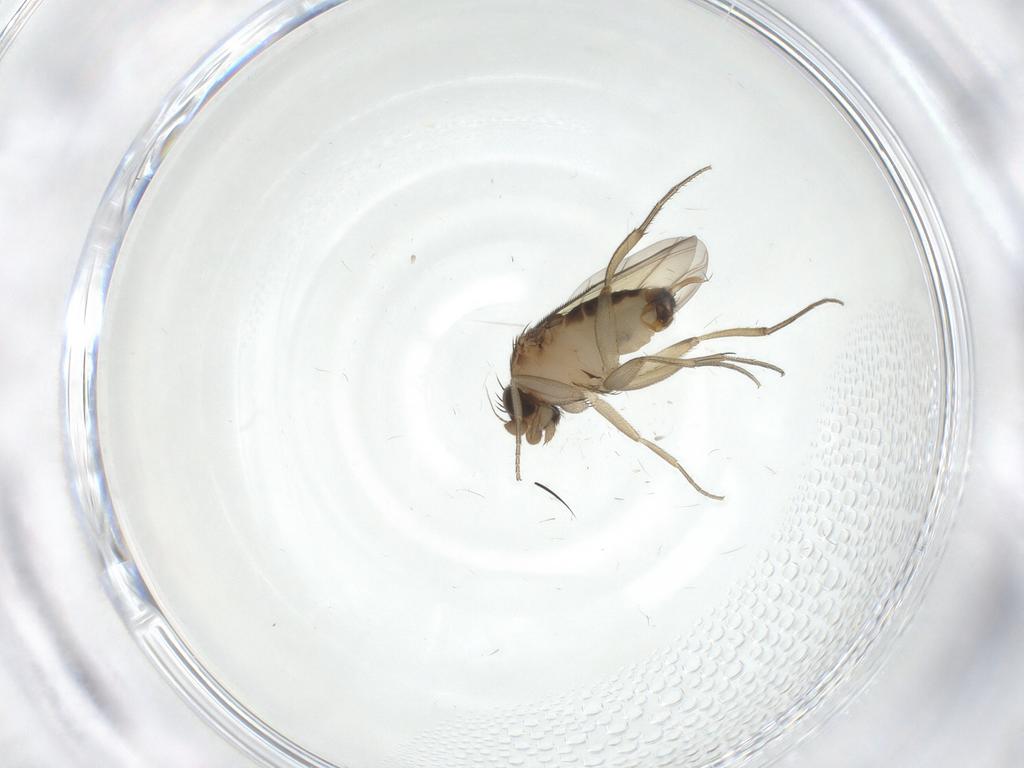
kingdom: Animalia
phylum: Arthropoda
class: Insecta
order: Diptera
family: Phoridae
